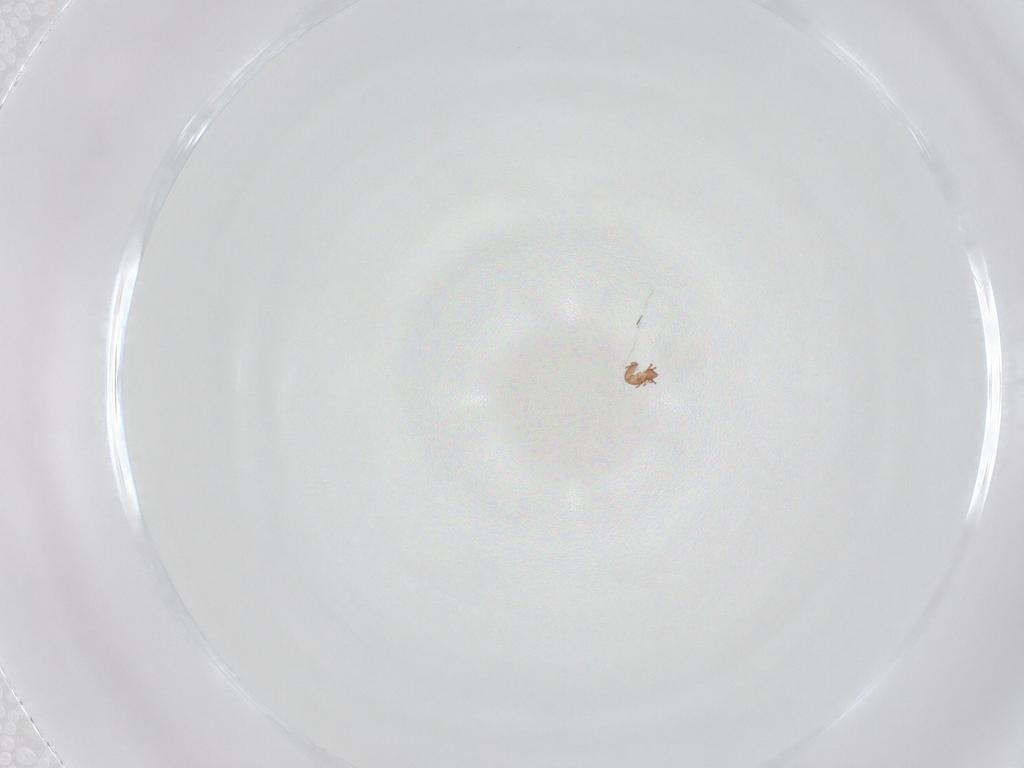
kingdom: Animalia
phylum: Arthropoda
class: Arachnida
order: Sarcoptiformes
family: Oppiidae
